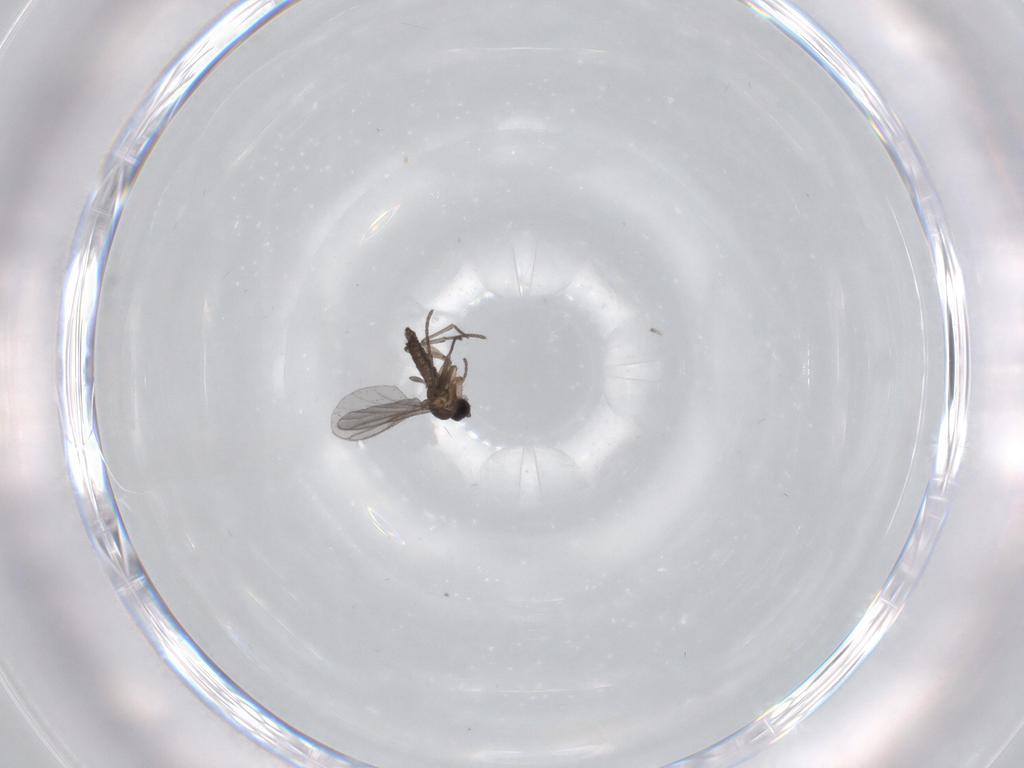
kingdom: Animalia
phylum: Arthropoda
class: Insecta
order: Diptera
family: Cecidomyiidae
